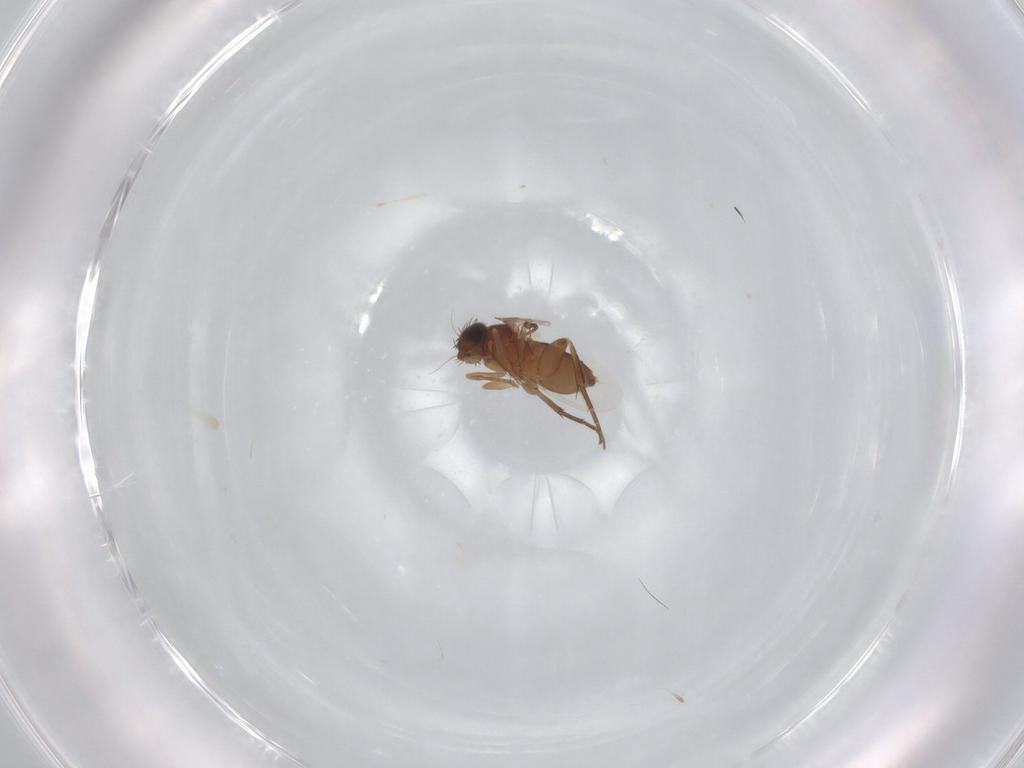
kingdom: Animalia
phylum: Arthropoda
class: Insecta
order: Diptera
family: Phoridae
